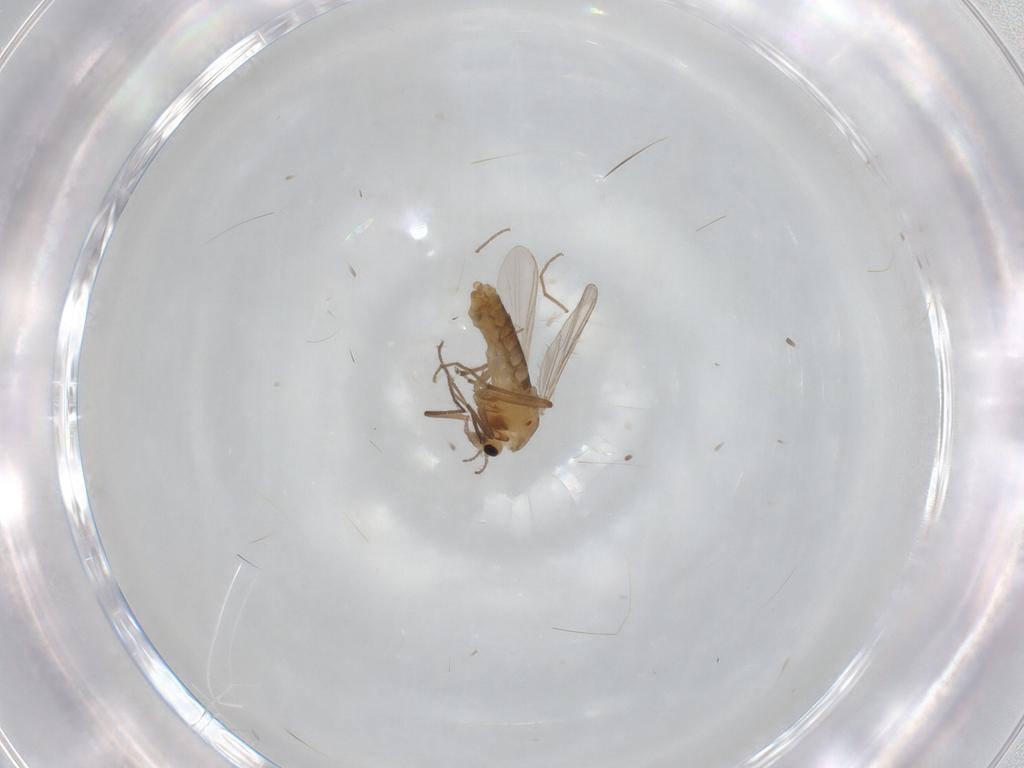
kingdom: Animalia
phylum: Arthropoda
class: Insecta
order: Diptera
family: Chironomidae
